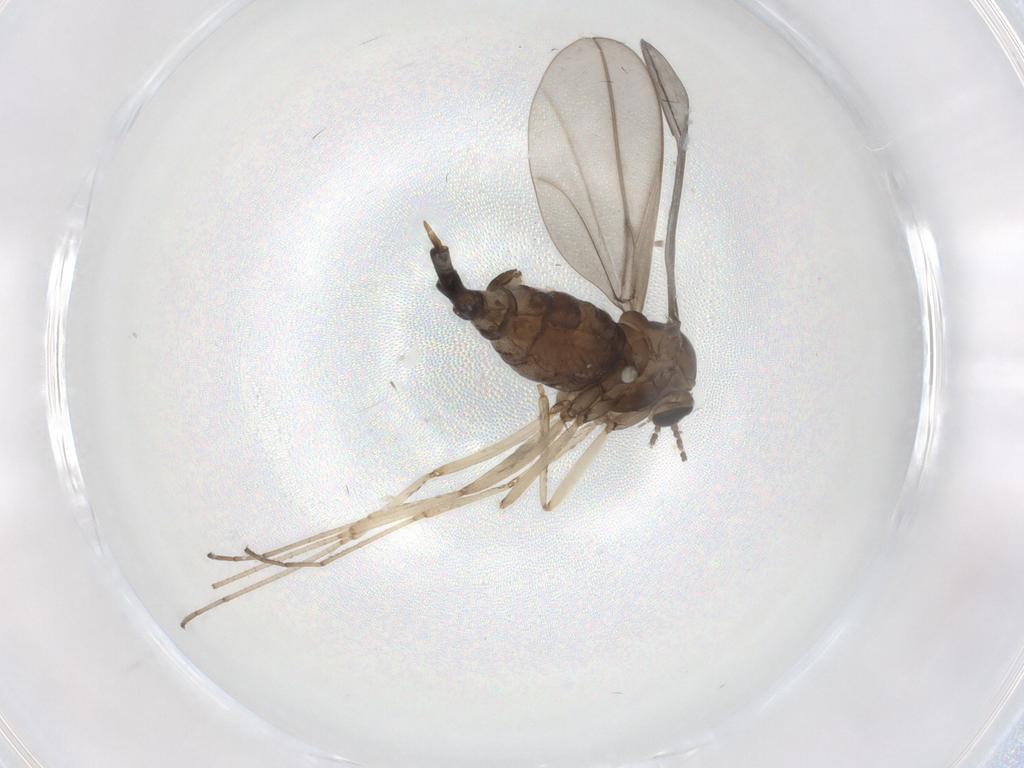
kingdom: Animalia
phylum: Arthropoda
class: Insecta
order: Diptera
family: Cecidomyiidae
